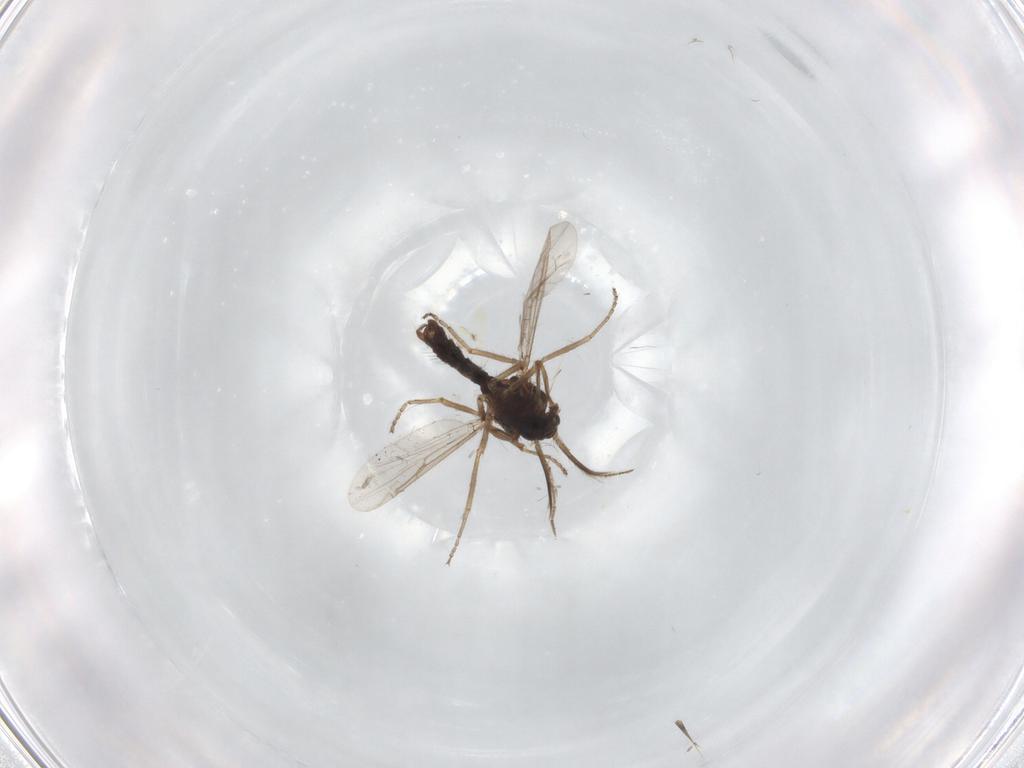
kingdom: Animalia
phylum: Arthropoda
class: Insecta
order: Diptera
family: Ceratopogonidae
